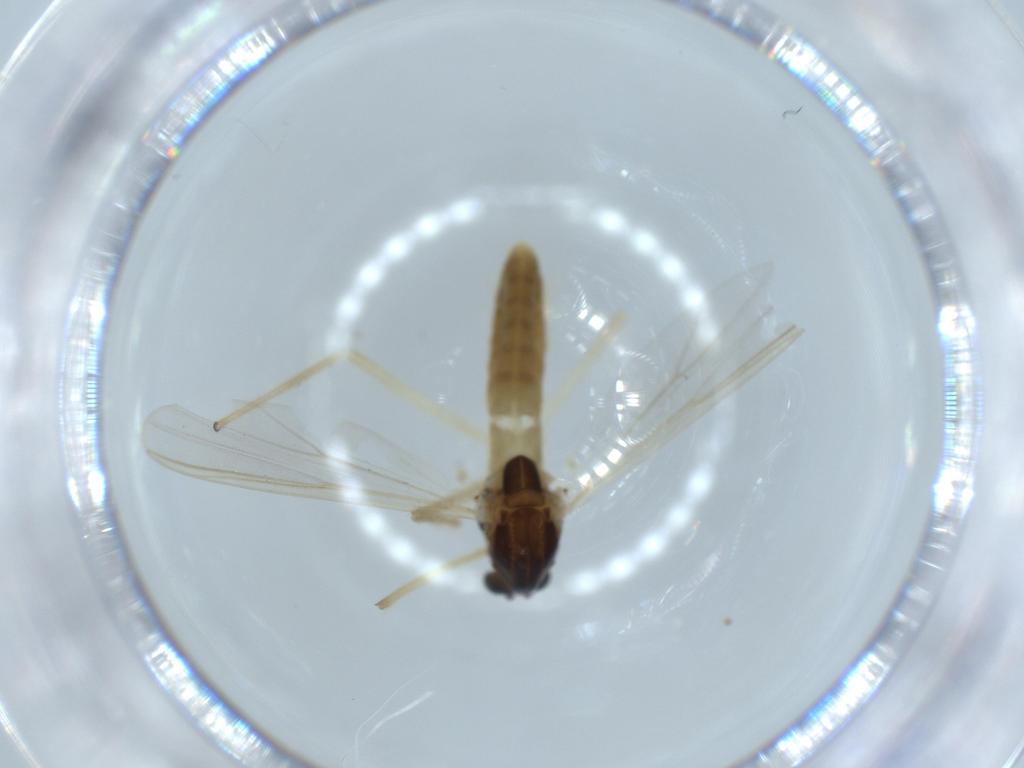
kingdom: Animalia
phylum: Arthropoda
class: Insecta
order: Diptera
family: Chironomidae
